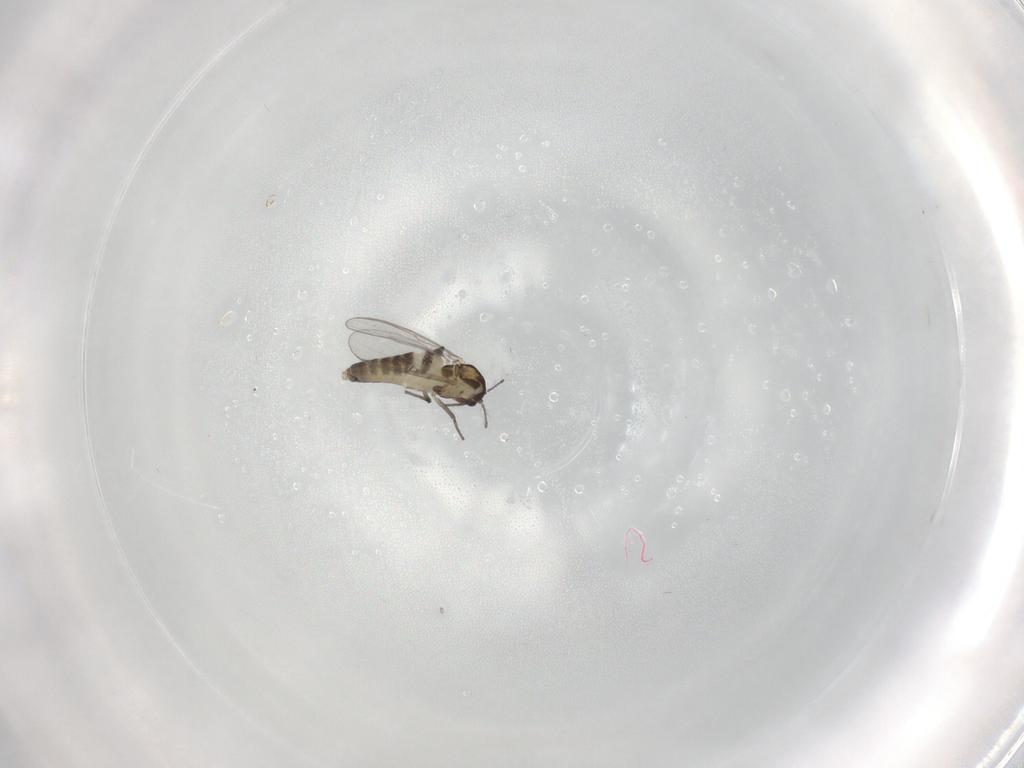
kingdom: Animalia
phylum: Arthropoda
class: Insecta
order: Diptera
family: Chironomidae
